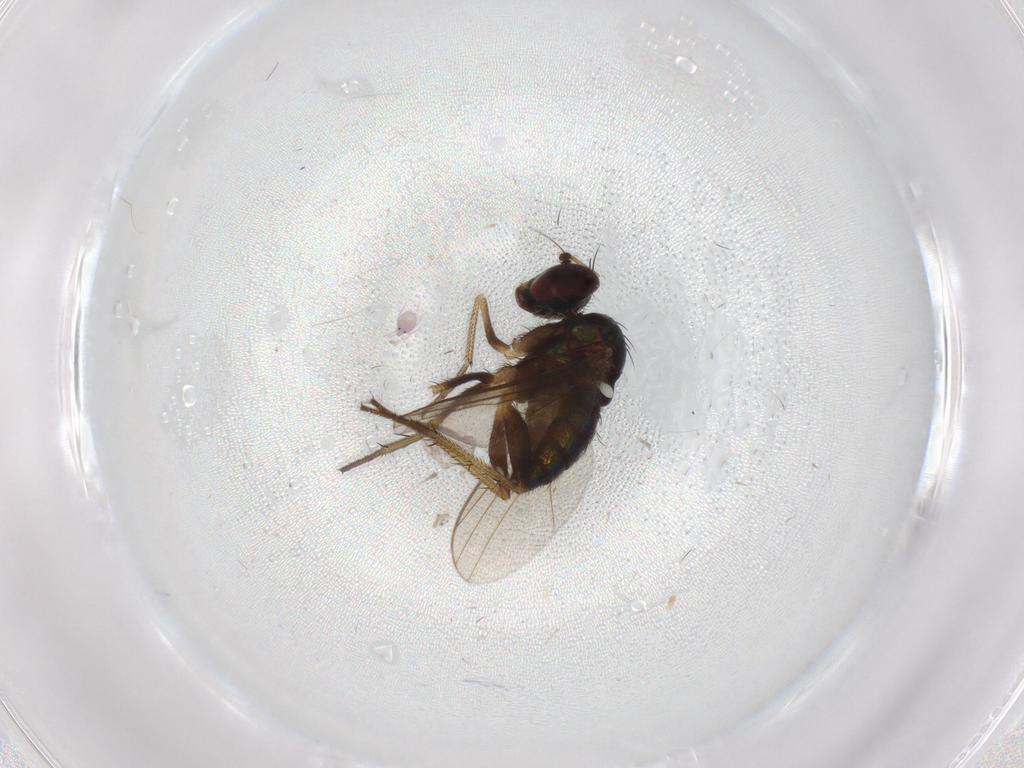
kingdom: Animalia
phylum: Arthropoda
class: Insecta
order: Diptera
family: Dolichopodidae
